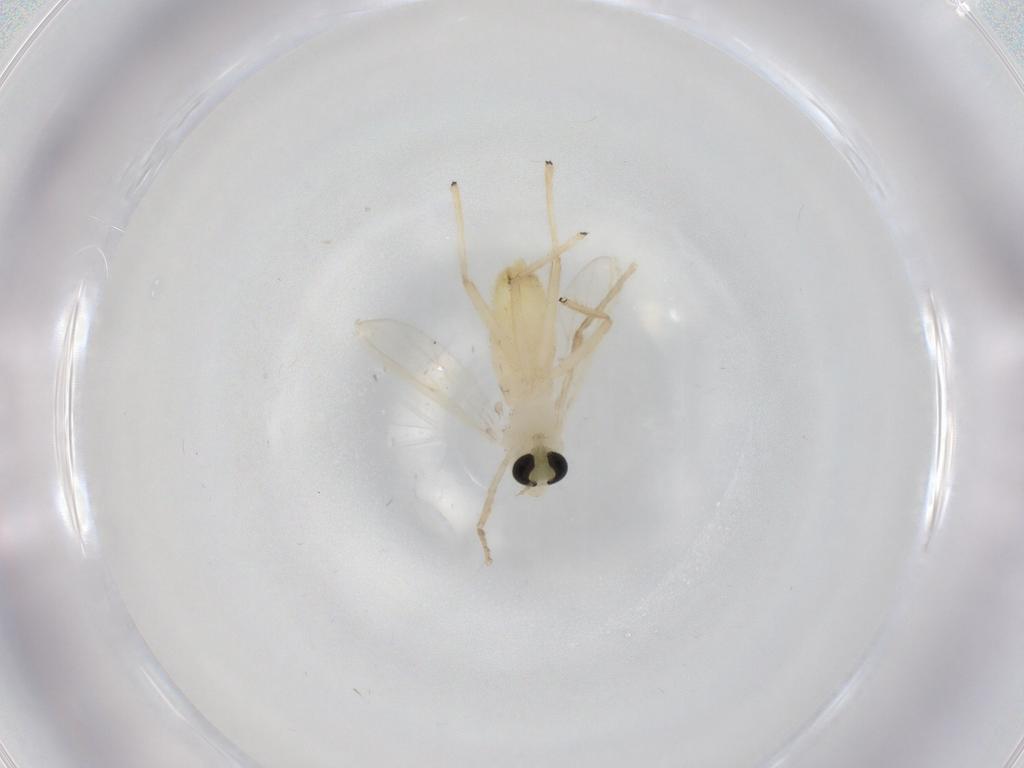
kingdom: Animalia
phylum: Arthropoda
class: Insecta
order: Diptera
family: Chironomidae
